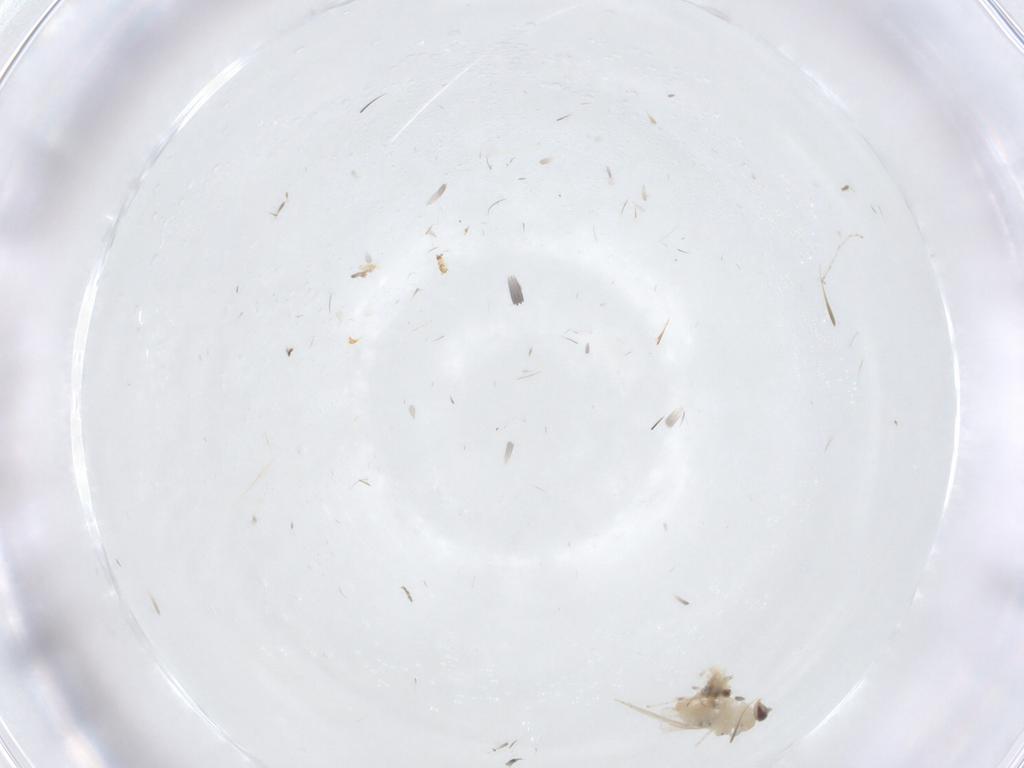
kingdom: Animalia
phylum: Arthropoda
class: Insecta
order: Diptera
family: Cecidomyiidae
